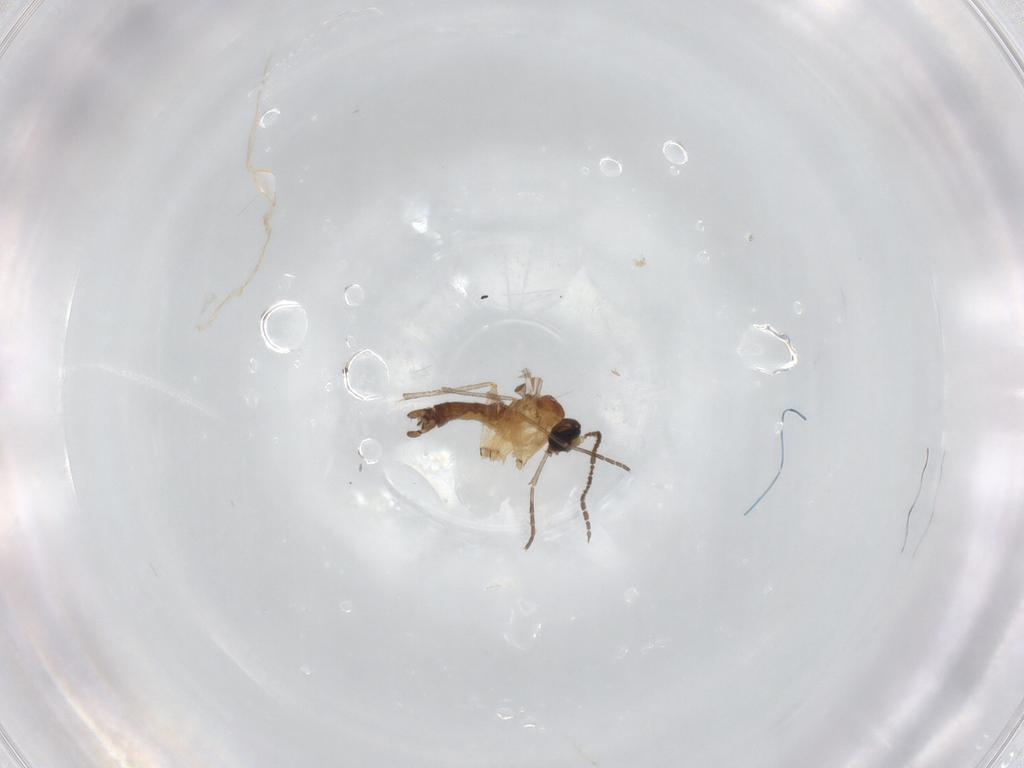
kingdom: Animalia
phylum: Arthropoda
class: Insecta
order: Diptera
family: Sciaridae
